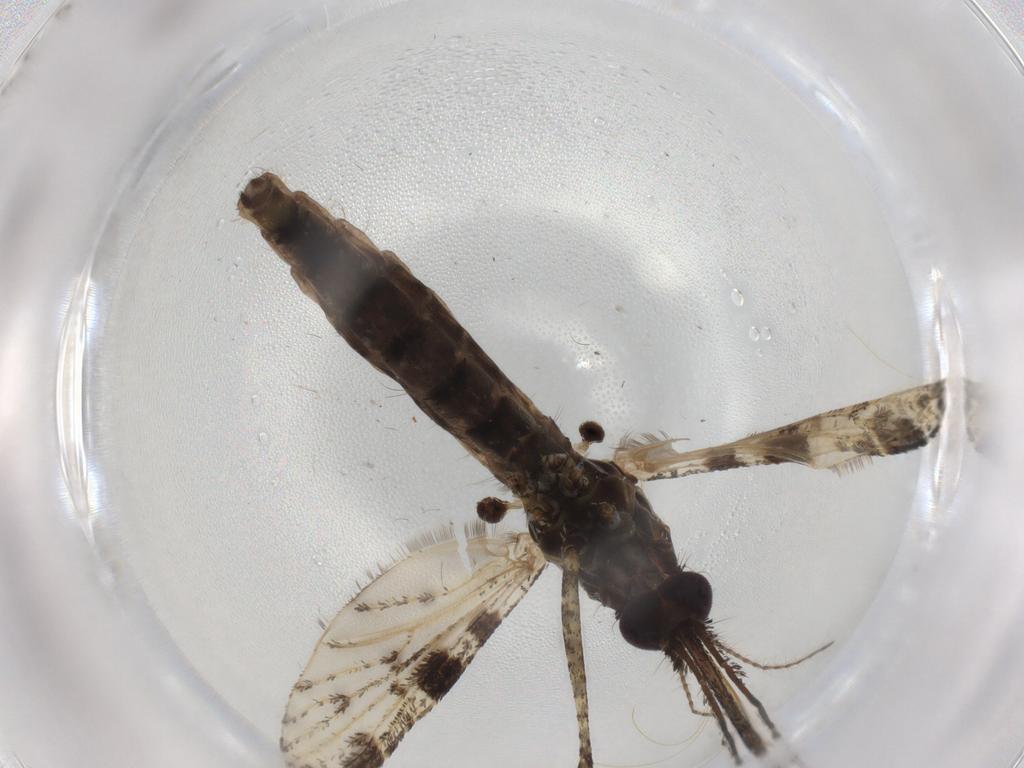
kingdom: Animalia
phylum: Arthropoda
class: Insecta
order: Diptera
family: Sciaridae
